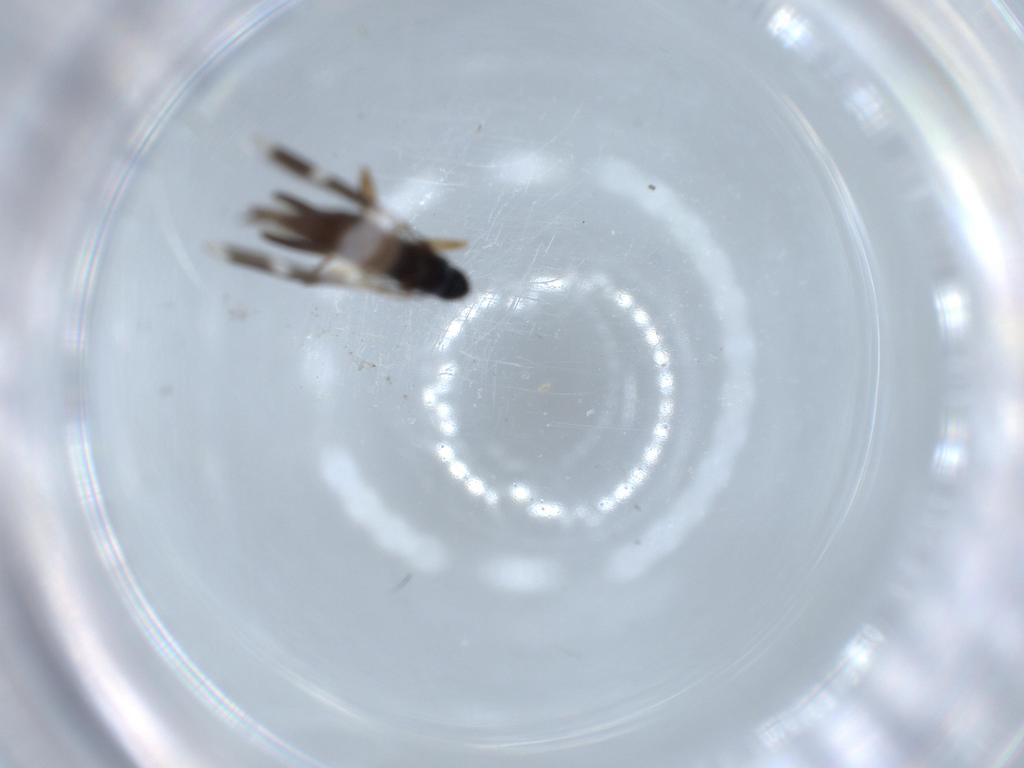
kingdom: Animalia
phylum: Arthropoda
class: Insecta
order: Diptera
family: Hybotidae
